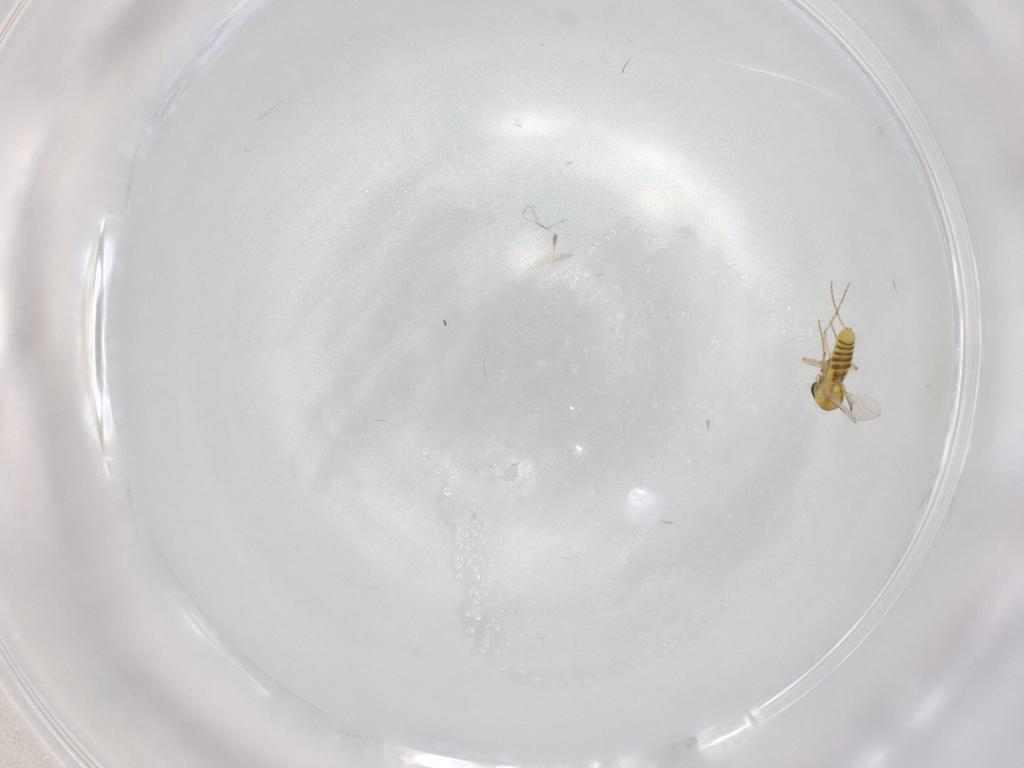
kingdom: Animalia
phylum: Arthropoda
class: Insecta
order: Diptera
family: Ceratopogonidae
